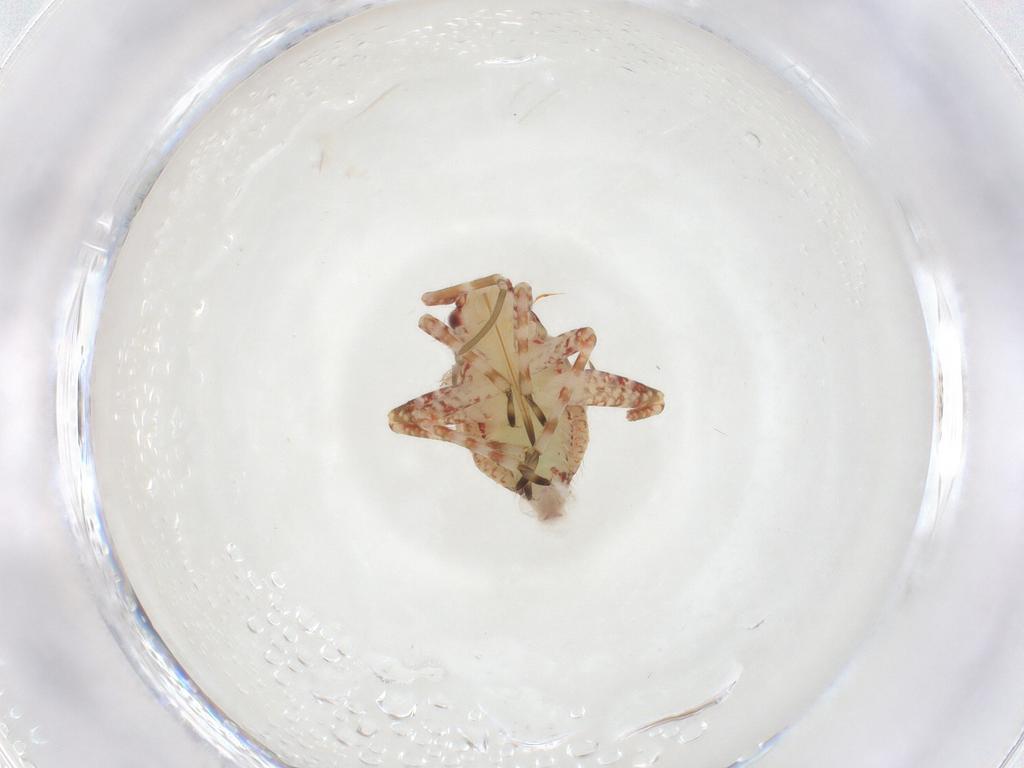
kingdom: Animalia
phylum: Arthropoda
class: Insecta
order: Hemiptera
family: Miridae
